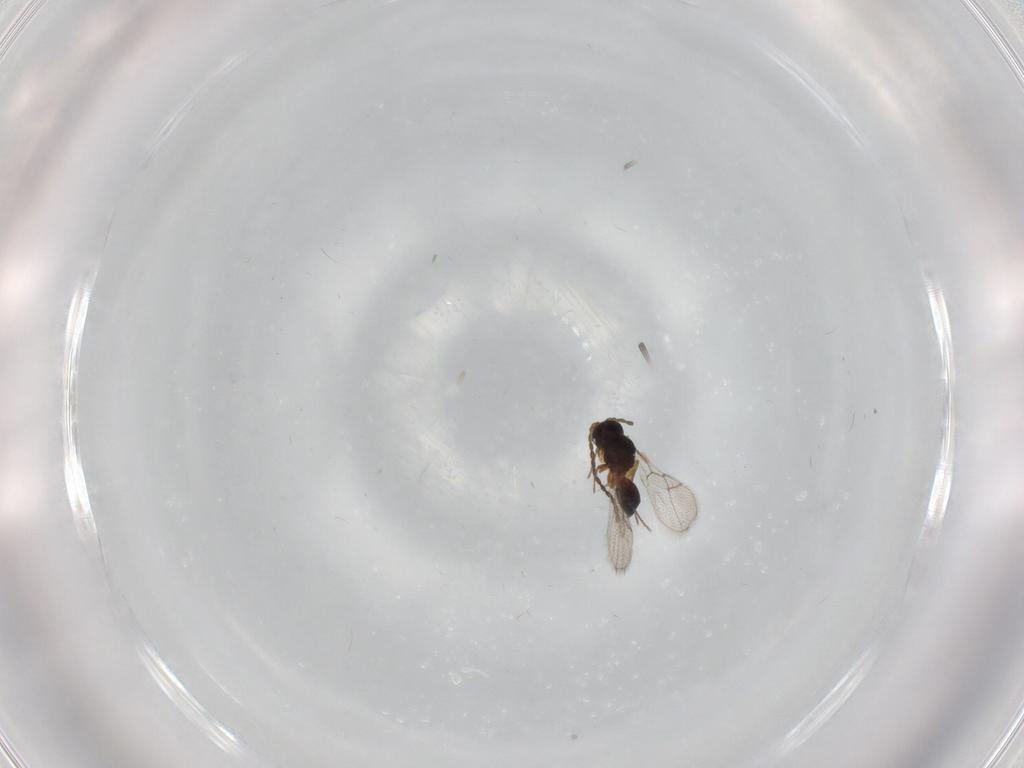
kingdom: Animalia
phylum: Arthropoda
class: Insecta
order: Hymenoptera
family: Figitidae
